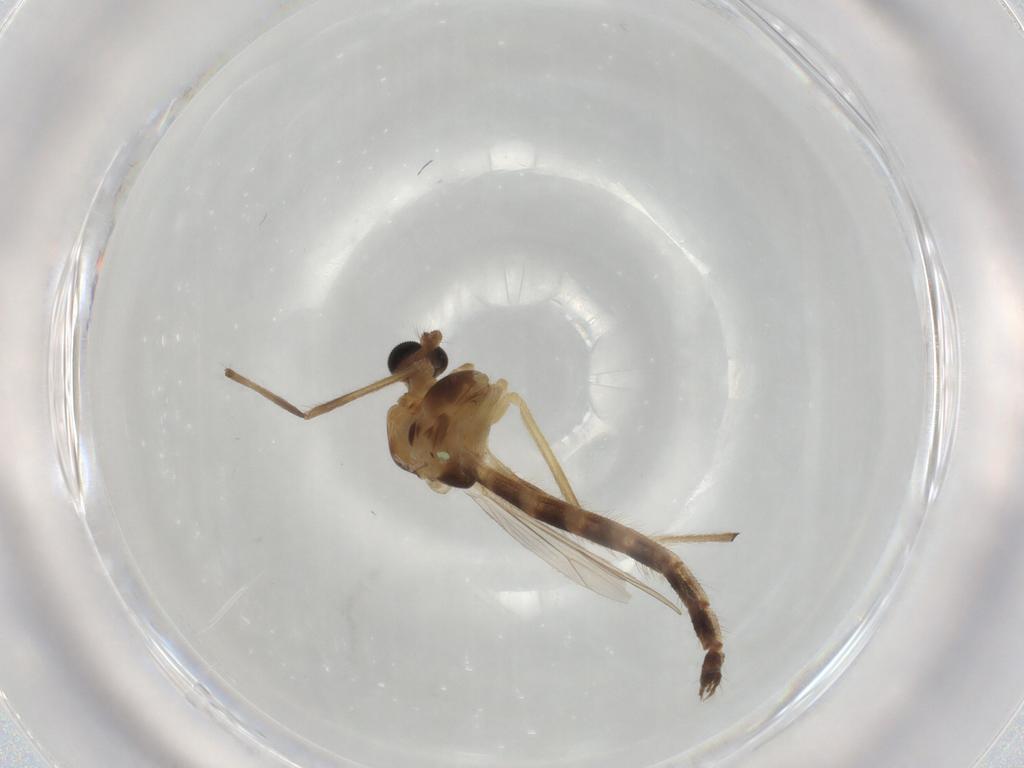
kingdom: Animalia
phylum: Arthropoda
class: Insecta
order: Diptera
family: Chironomidae
